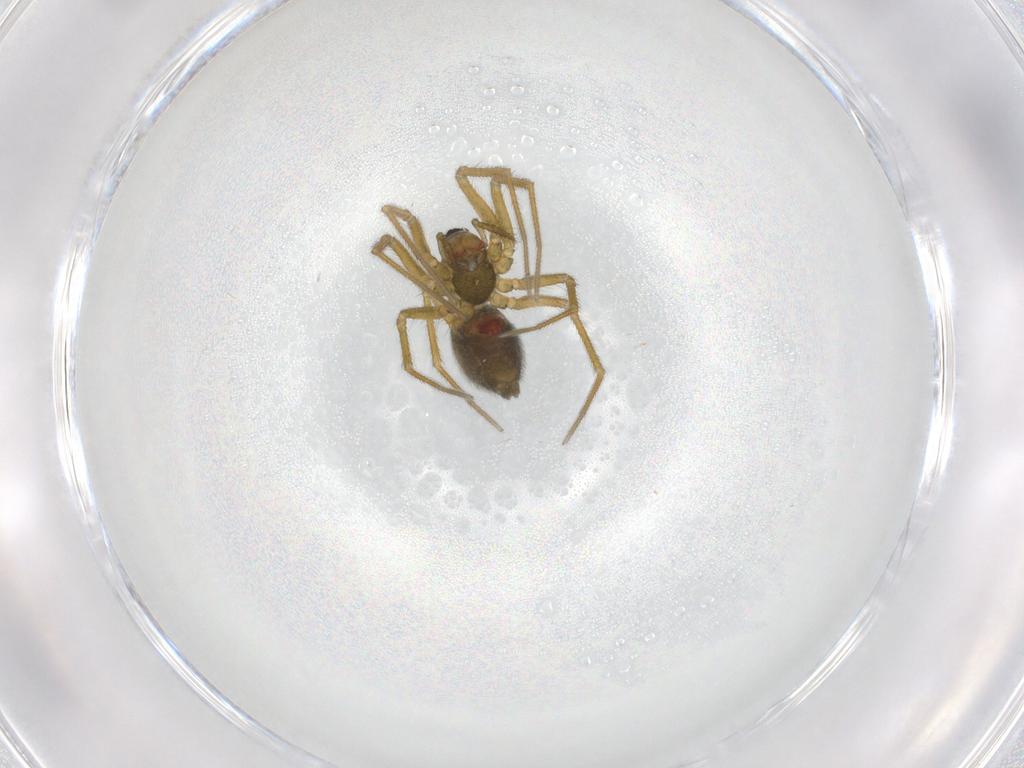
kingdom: Animalia
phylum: Arthropoda
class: Arachnida
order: Araneae
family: Linyphiidae
